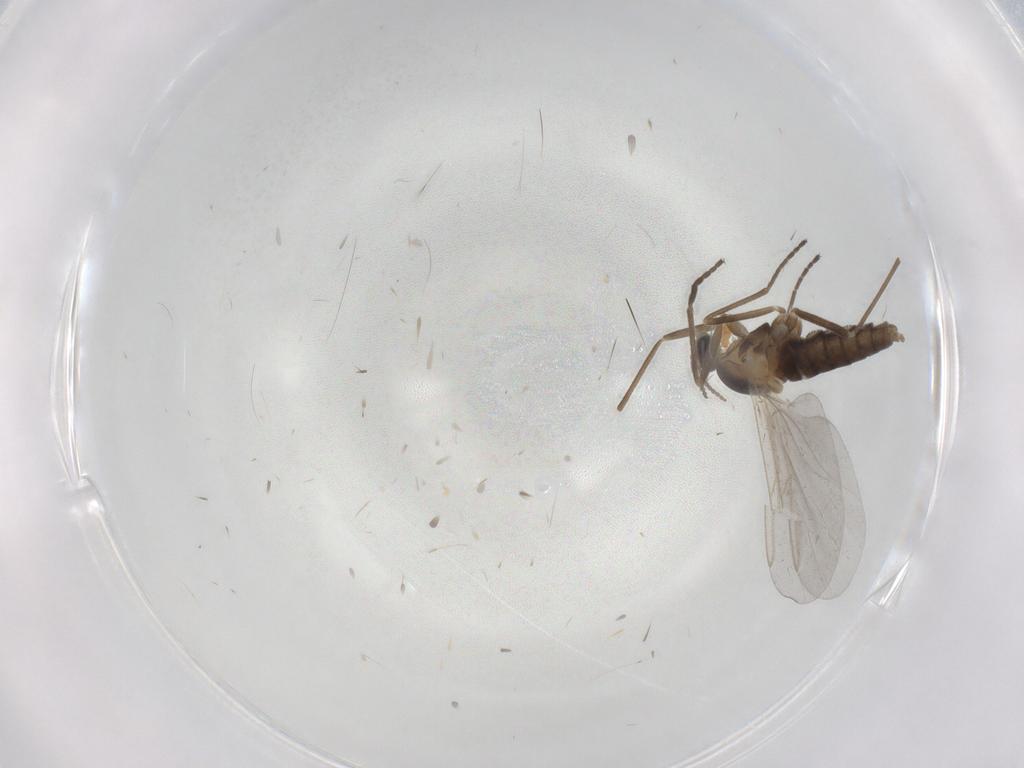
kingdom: Animalia
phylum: Arthropoda
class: Insecta
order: Diptera
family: Cecidomyiidae
